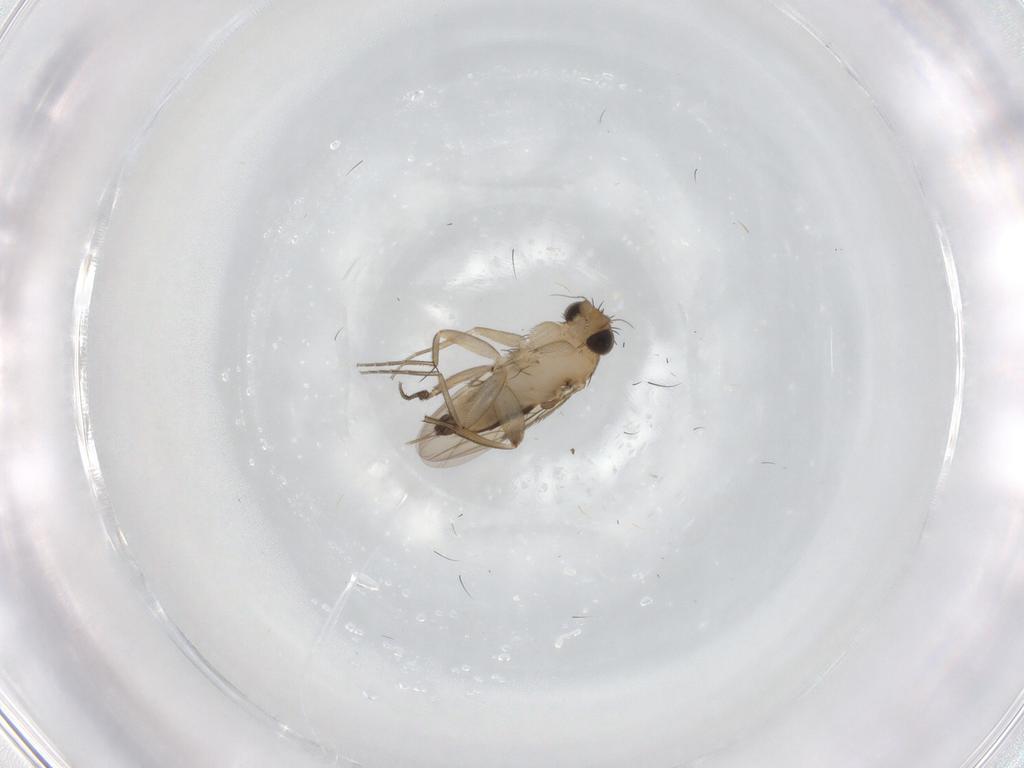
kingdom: Animalia
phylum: Arthropoda
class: Insecta
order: Diptera
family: Phoridae
